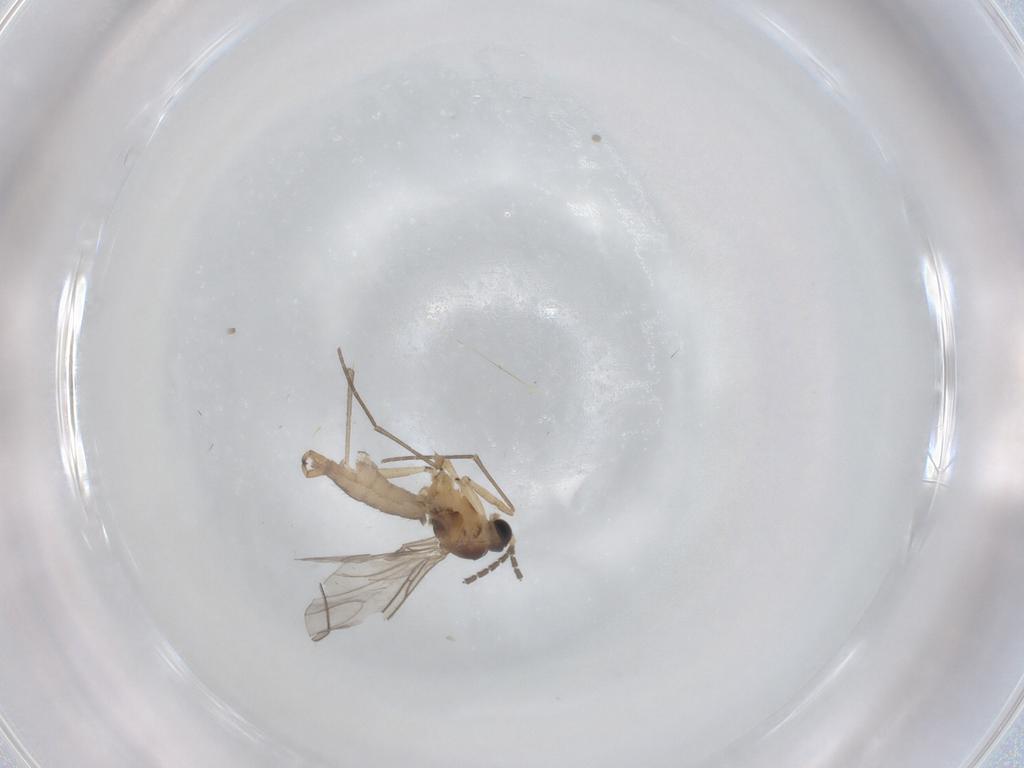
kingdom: Animalia
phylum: Arthropoda
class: Insecta
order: Diptera
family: Sciaridae
